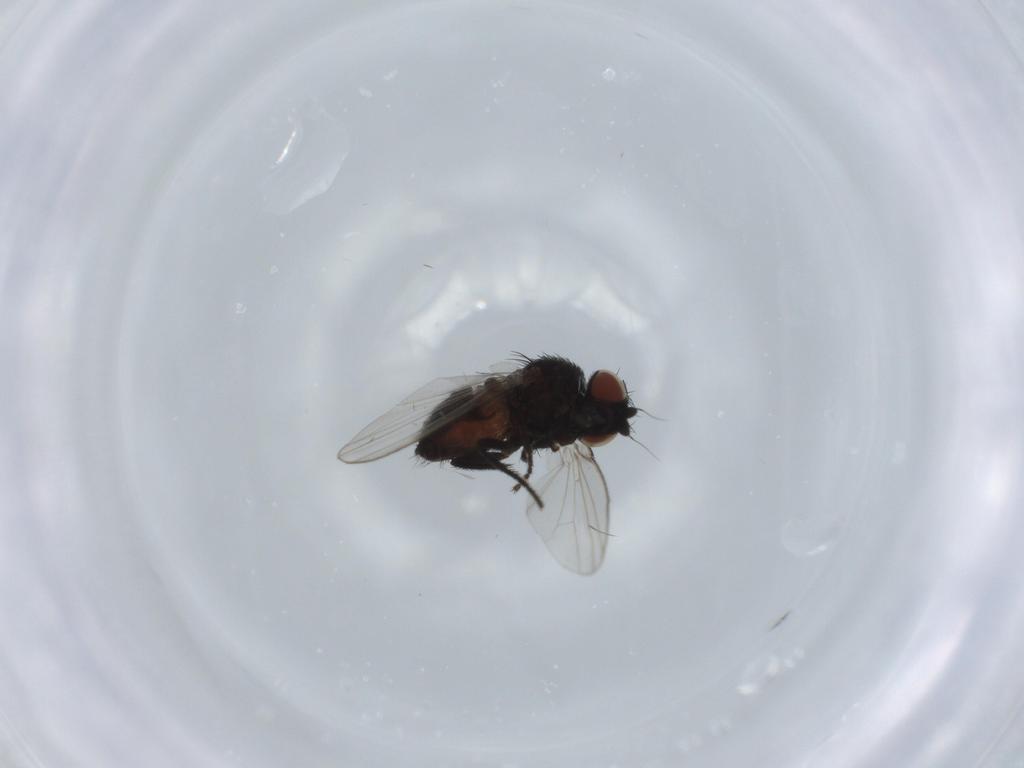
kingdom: Animalia
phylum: Arthropoda
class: Insecta
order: Diptera
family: Milichiidae
